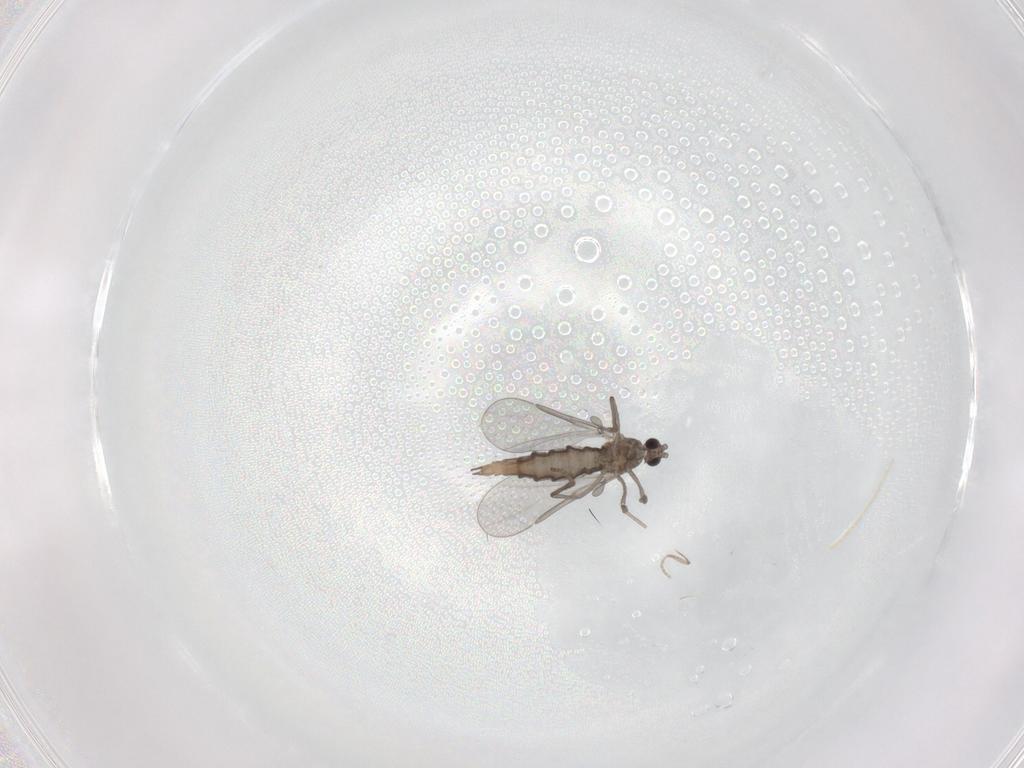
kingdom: Animalia
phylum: Arthropoda
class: Insecta
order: Diptera
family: Cecidomyiidae
